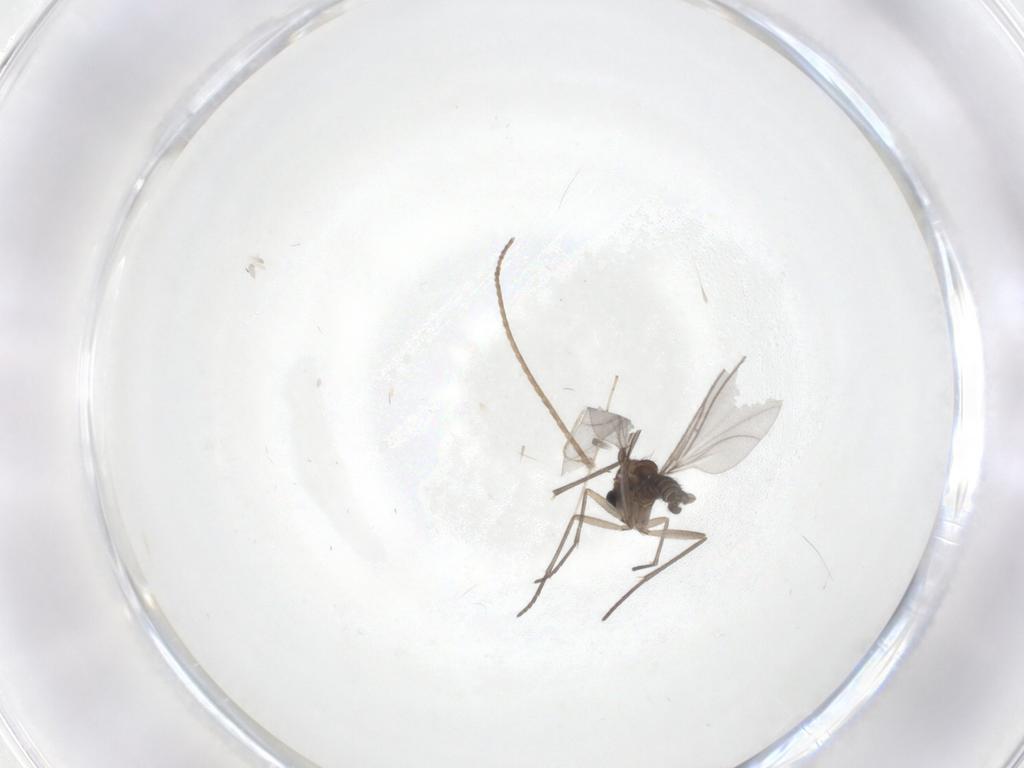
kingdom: Animalia
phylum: Arthropoda
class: Insecta
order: Diptera
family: Sciaridae
